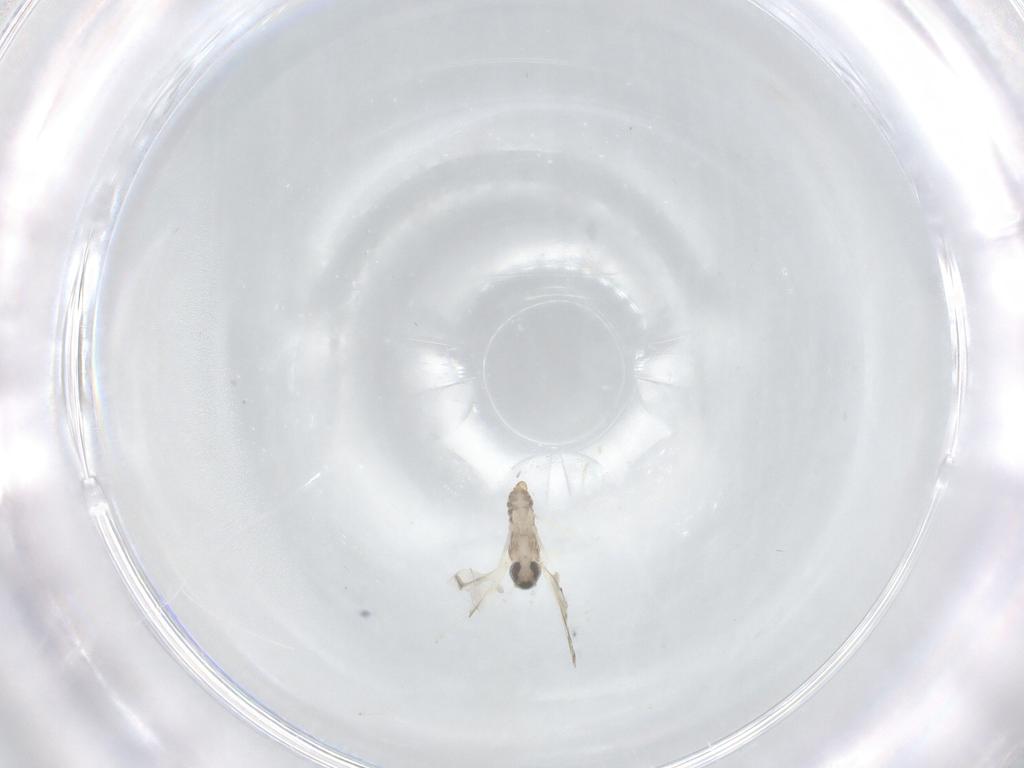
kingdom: Animalia
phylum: Arthropoda
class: Insecta
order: Diptera
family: Cecidomyiidae
